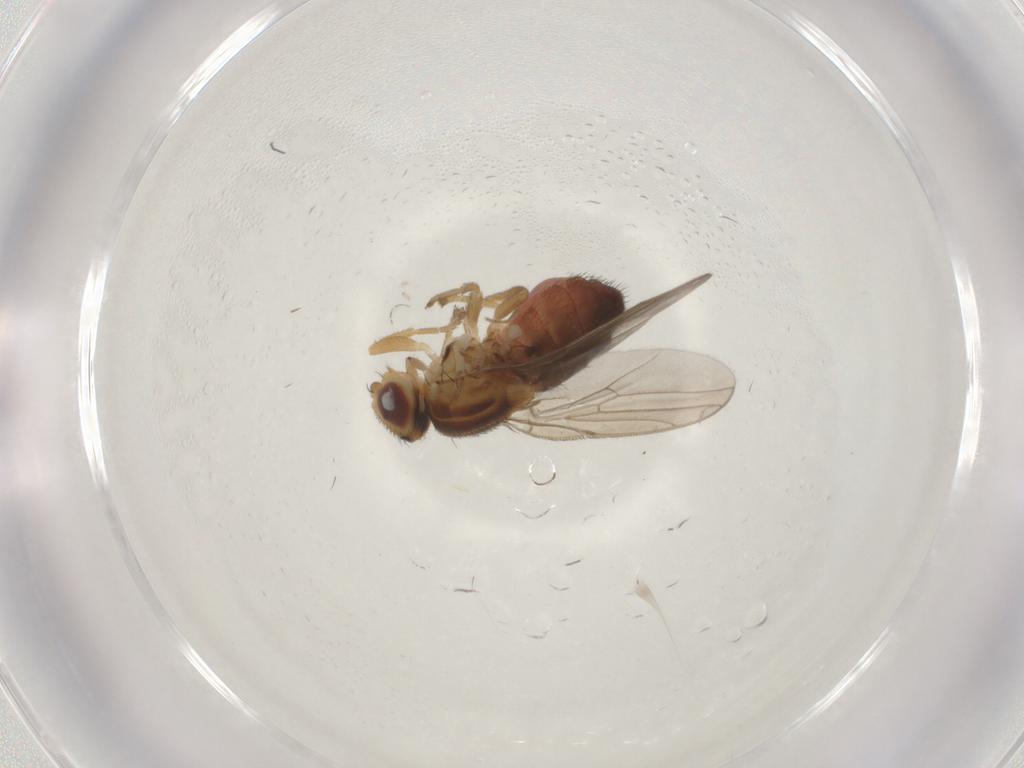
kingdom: Animalia
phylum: Arthropoda
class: Insecta
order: Diptera
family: Chloropidae
